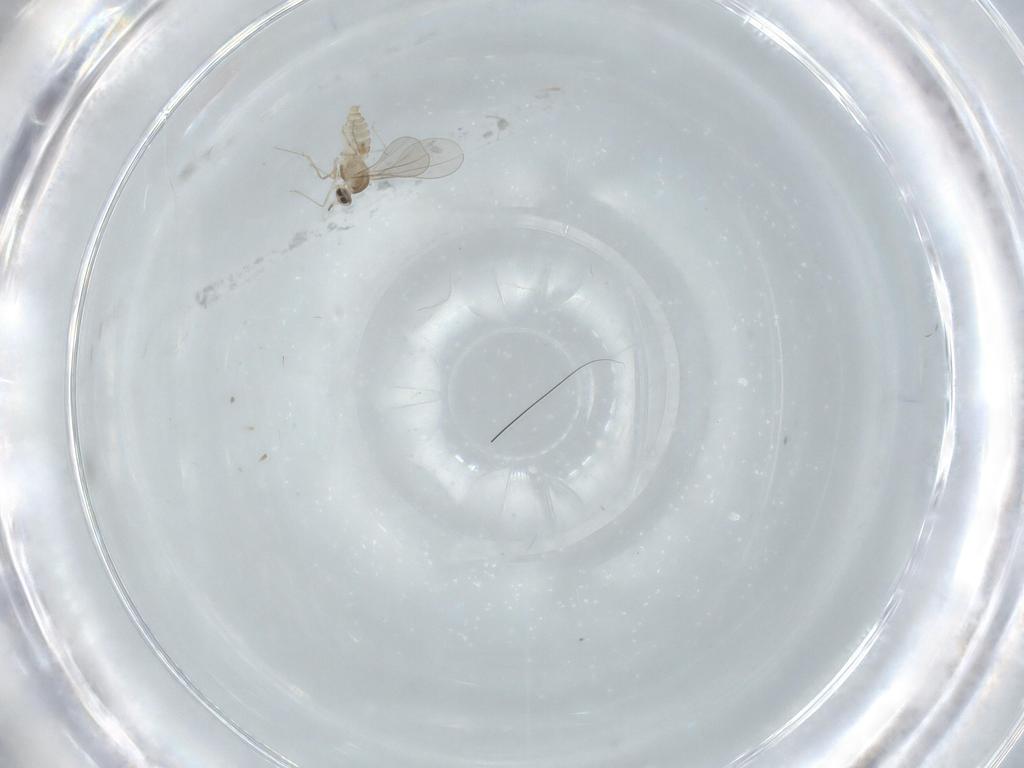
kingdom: Animalia
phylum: Arthropoda
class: Insecta
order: Diptera
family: Cecidomyiidae
